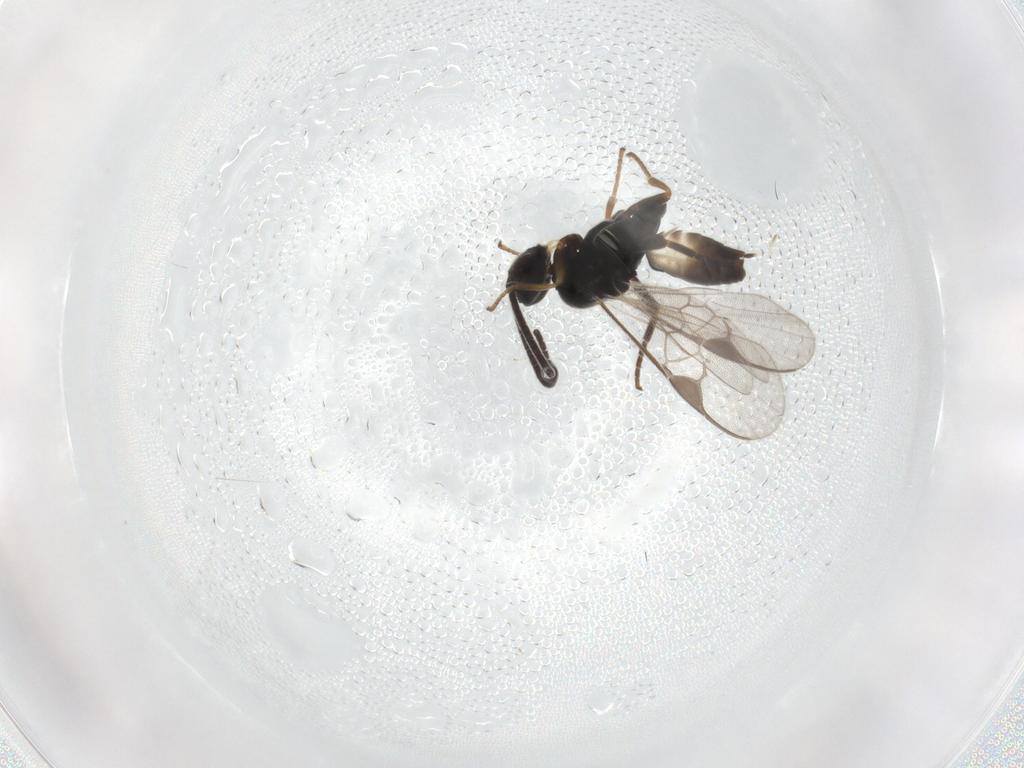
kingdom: Animalia
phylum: Arthropoda
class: Insecta
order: Hymenoptera
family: Braconidae
